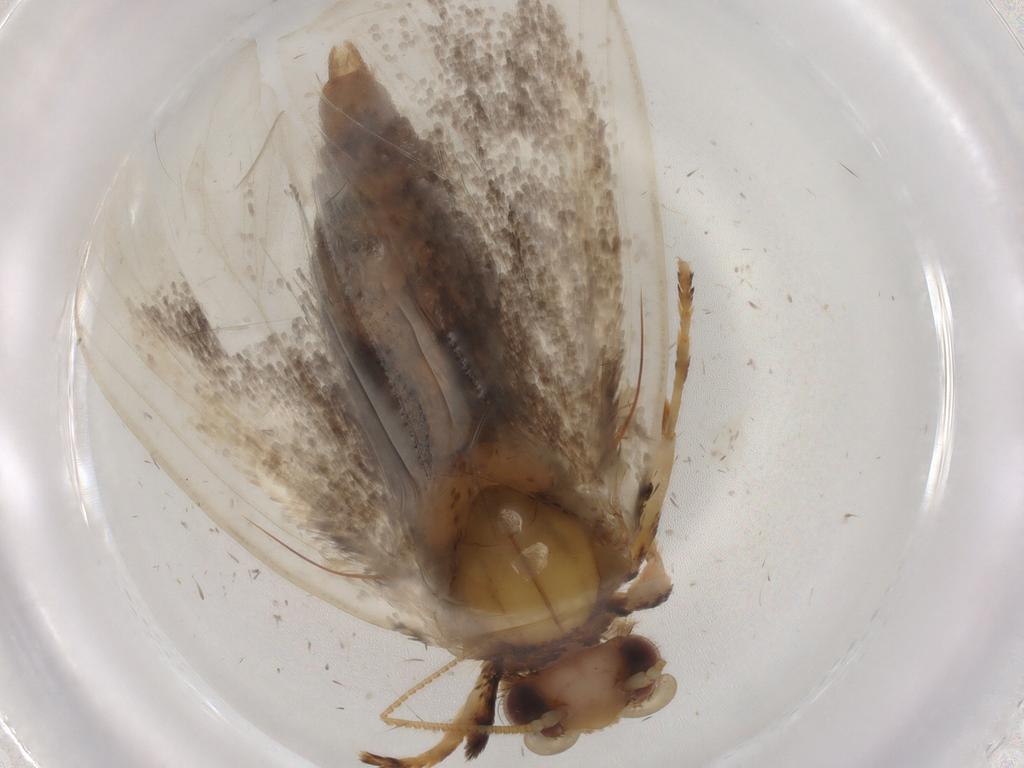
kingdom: Animalia
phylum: Arthropoda
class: Insecta
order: Lepidoptera
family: Tineidae
